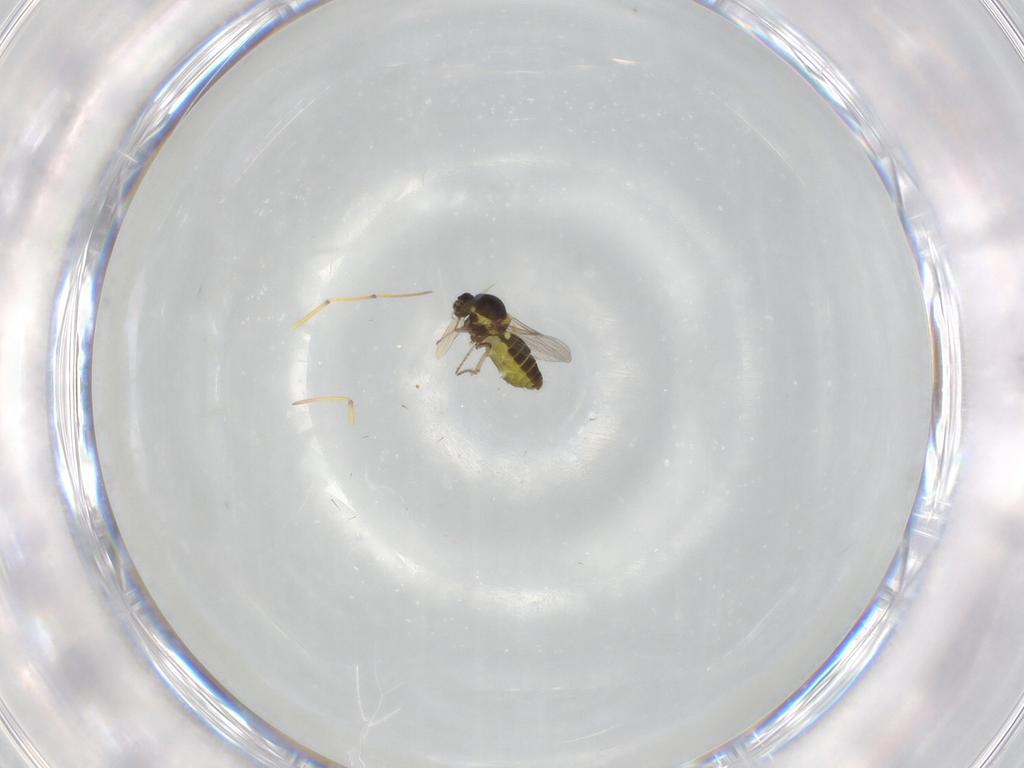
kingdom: Animalia
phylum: Arthropoda
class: Insecta
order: Diptera
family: Ceratopogonidae
